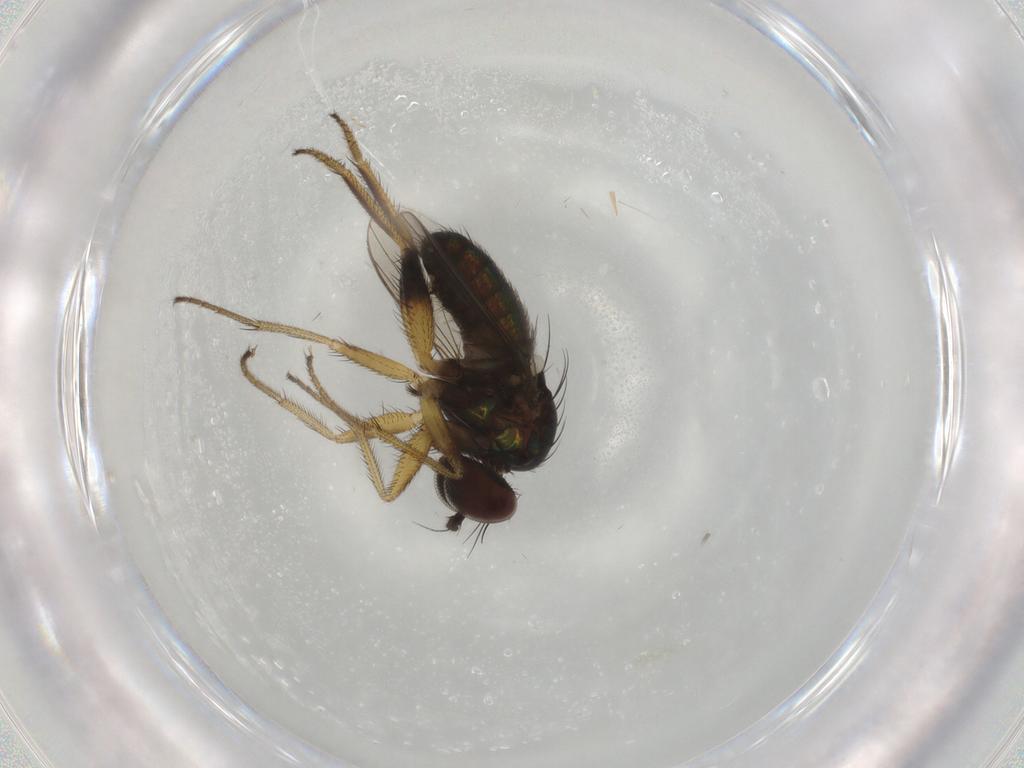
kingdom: Animalia
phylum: Arthropoda
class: Insecta
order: Diptera
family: Dolichopodidae
